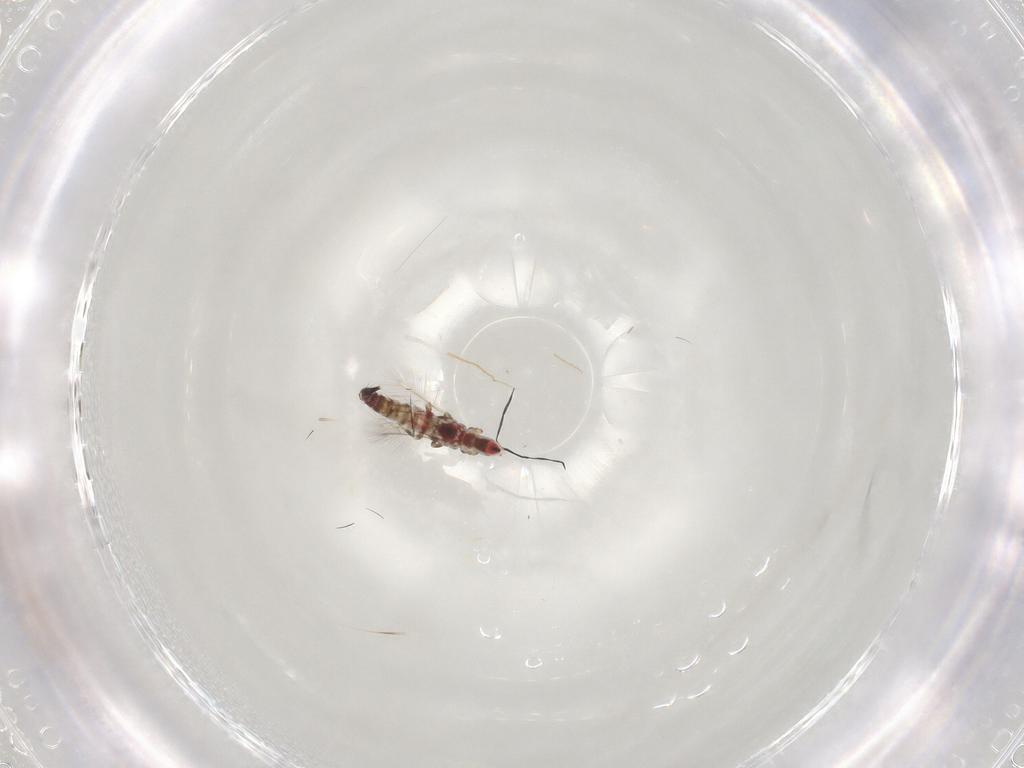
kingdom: Animalia
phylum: Arthropoda
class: Insecta
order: Thysanoptera
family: Phlaeothripidae
